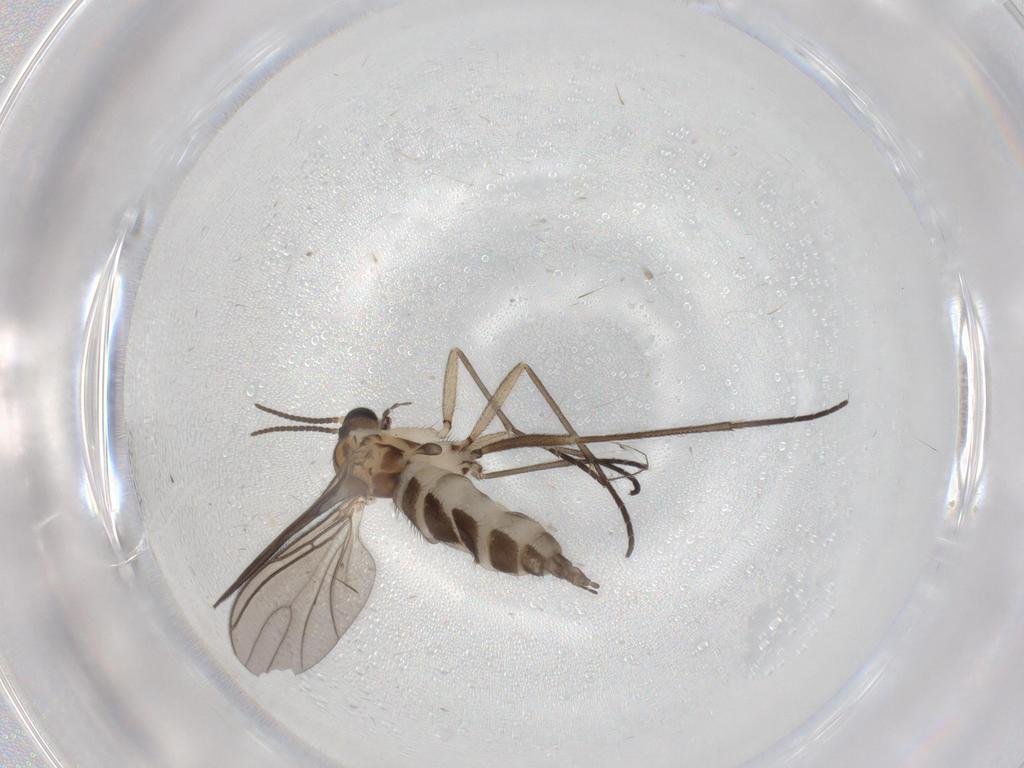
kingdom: Animalia
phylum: Arthropoda
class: Insecta
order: Diptera
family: Sciaridae
